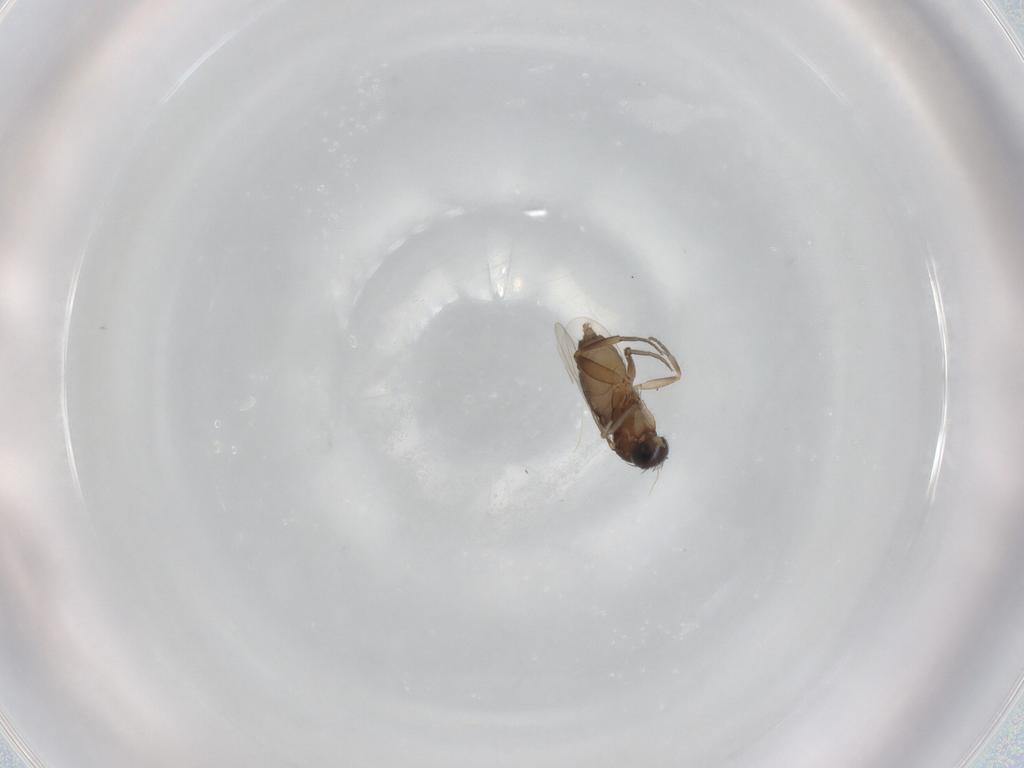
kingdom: Animalia
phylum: Arthropoda
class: Insecta
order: Diptera
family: Phoridae
